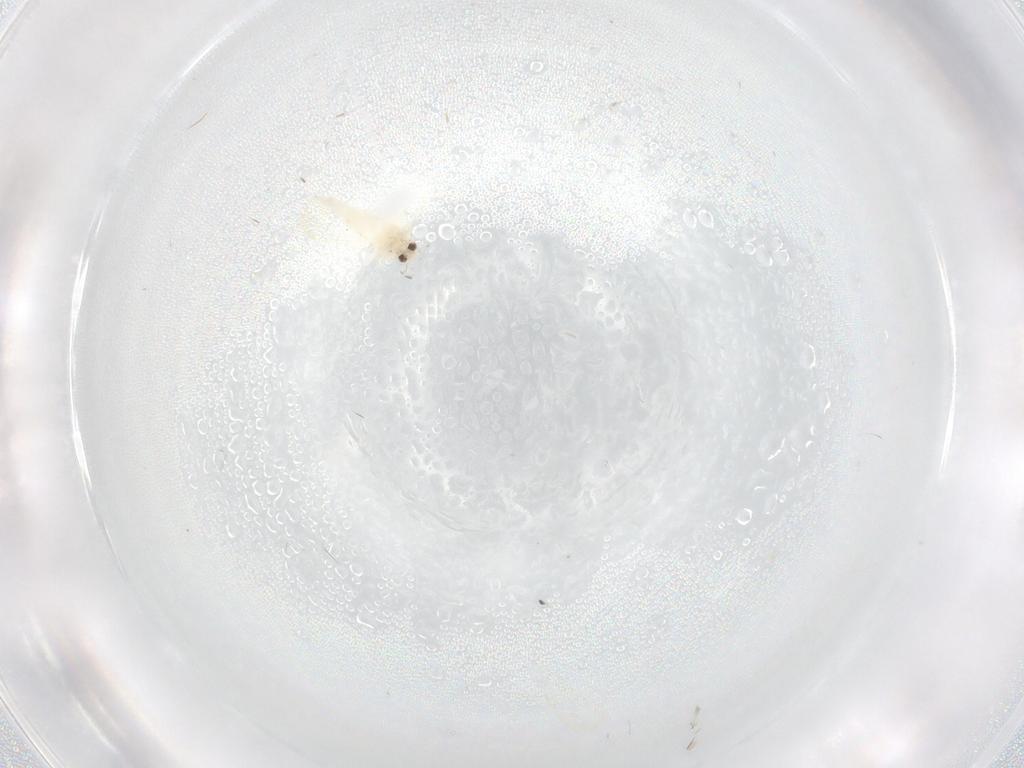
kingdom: Animalia
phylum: Arthropoda
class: Insecta
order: Hemiptera
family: Aleyrodidae
